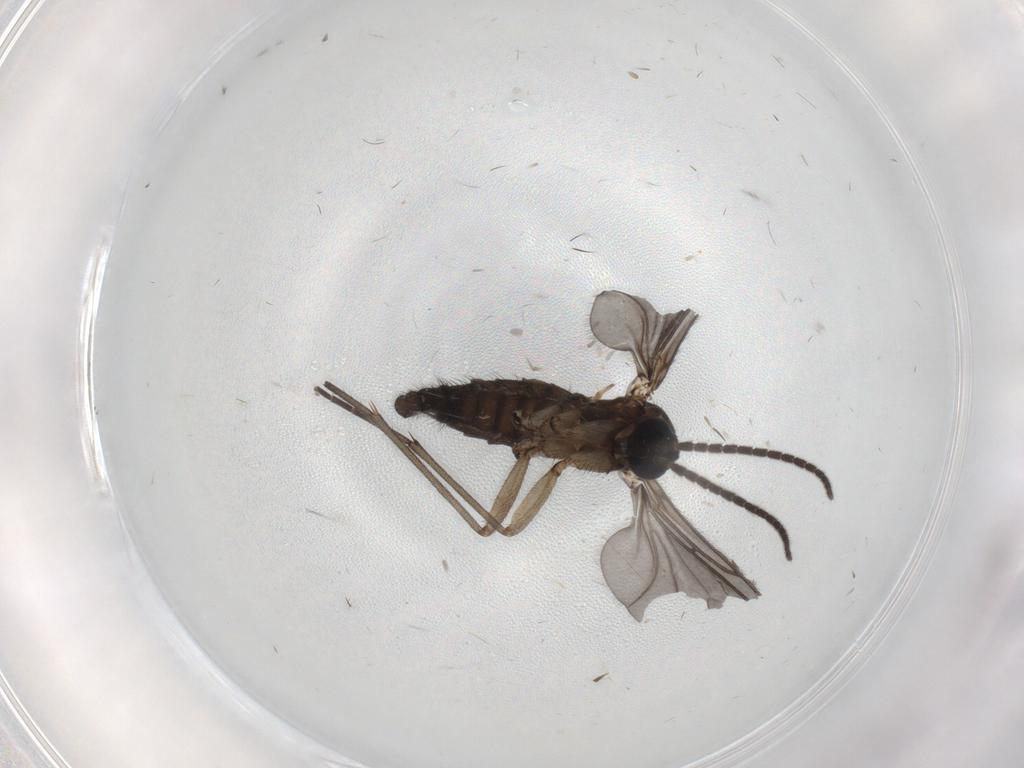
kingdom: Animalia
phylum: Arthropoda
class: Insecta
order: Diptera
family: Sciaridae
